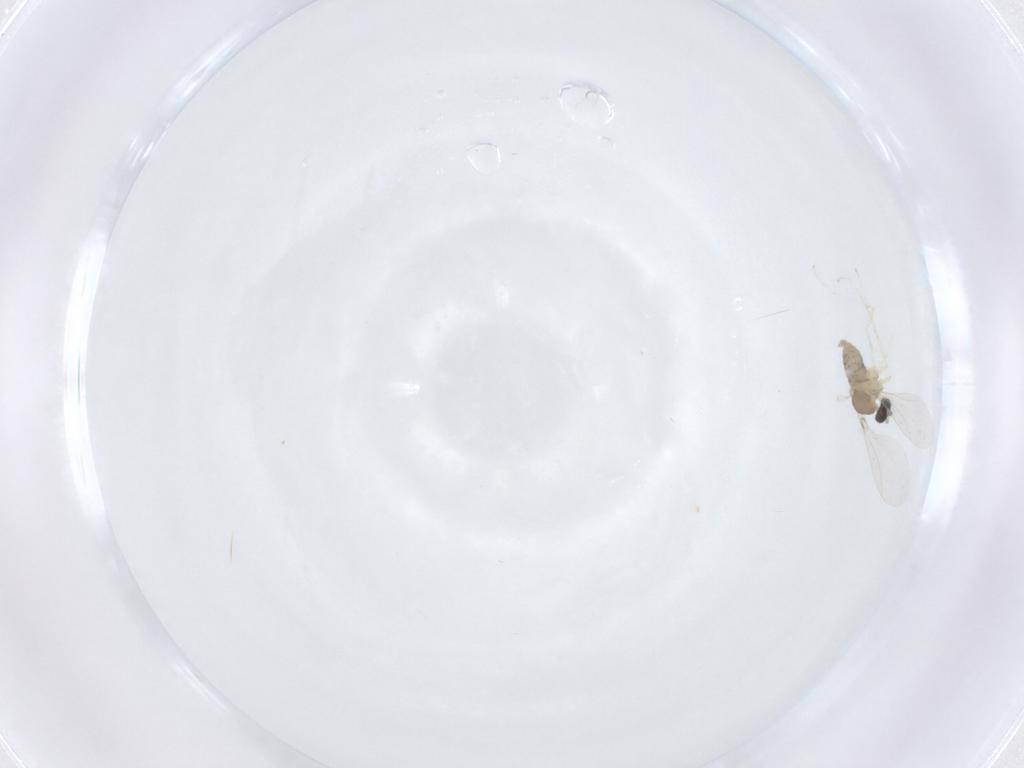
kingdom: Animalia
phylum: Arthropoda
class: Insecta
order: Diptera
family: Cecidomyiidae
